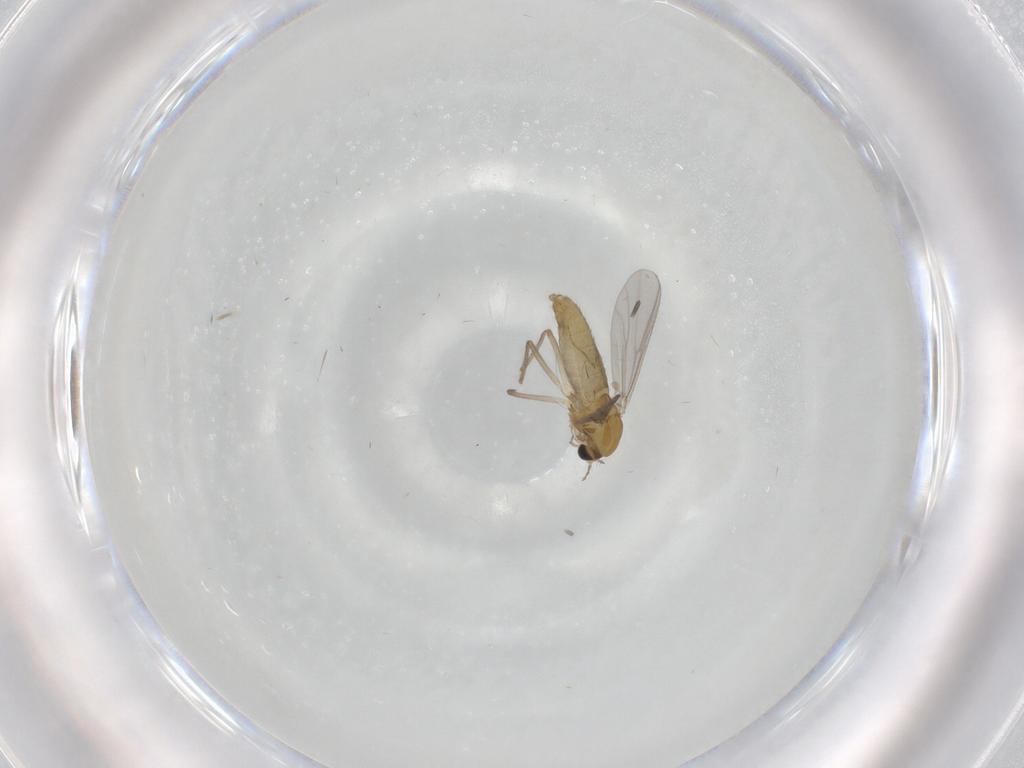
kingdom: Animalia
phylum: Arthropoda
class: Insecta
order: Diptera
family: Chironomidae
